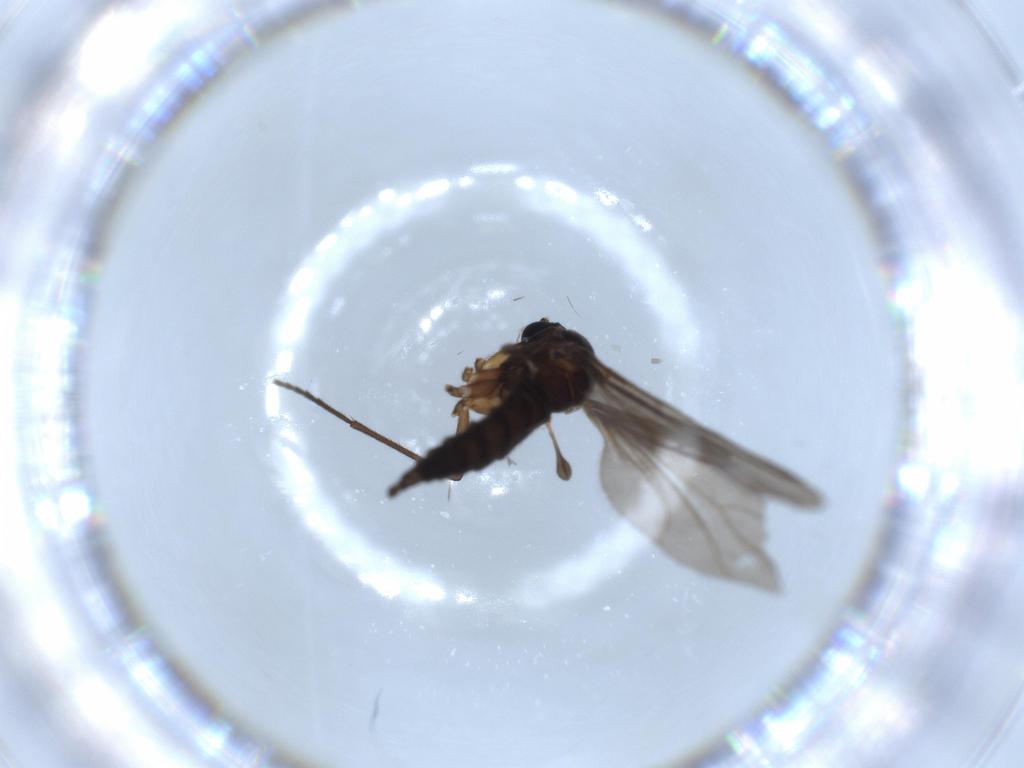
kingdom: Animalia
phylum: Arthropoda
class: Insecta
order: Diptera
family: Sciaridae
